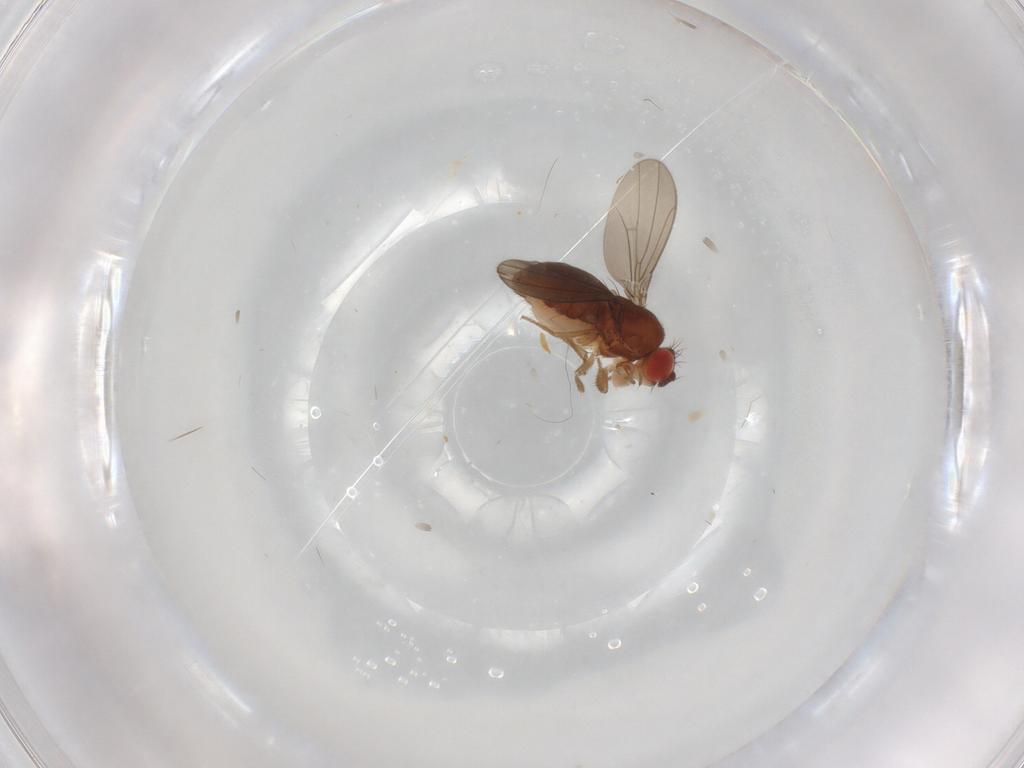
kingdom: Animalia
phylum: Arthropoda
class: Insecta
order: Diptera
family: Drosophilidae
